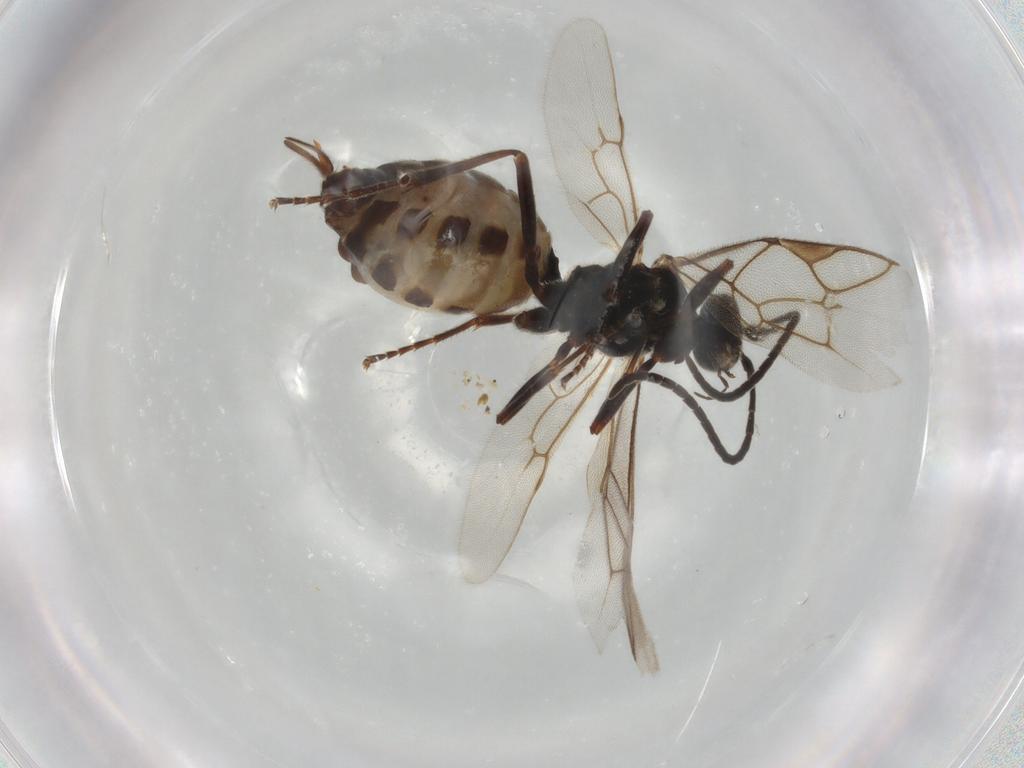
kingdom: Animalia
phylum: Arthropoda
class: Insecta
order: Hymenoptera
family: Ichneumonidae
